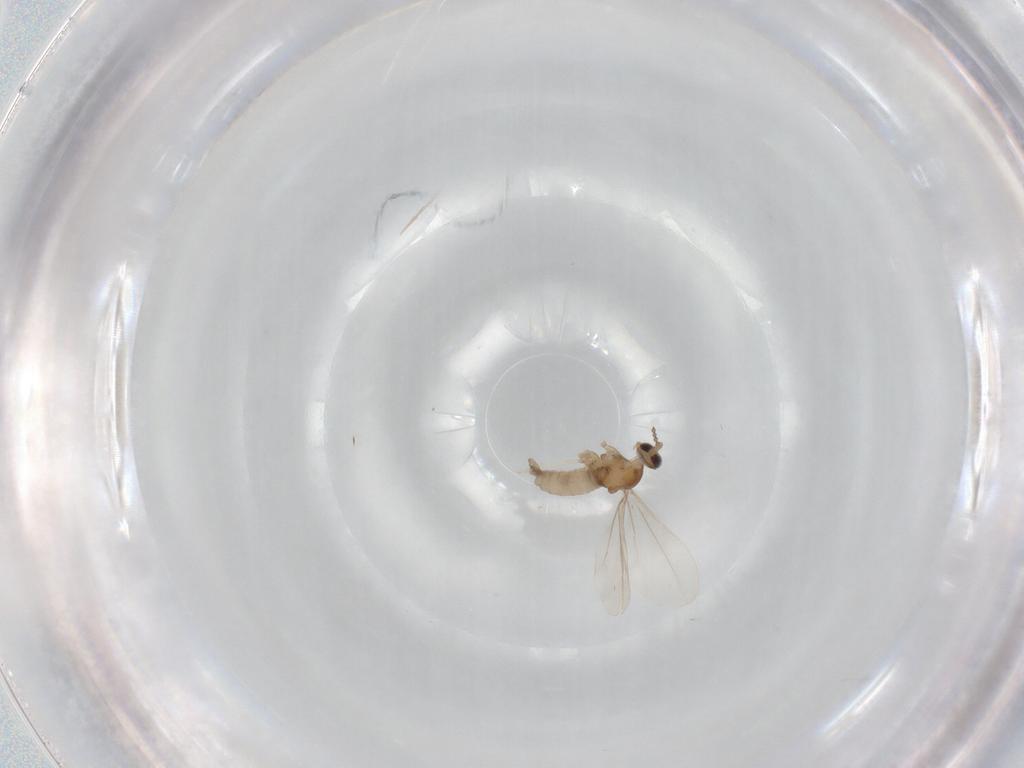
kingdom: Animalia
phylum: Arthropoda
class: Insecta
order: Diptera
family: Cecidomyiidae
